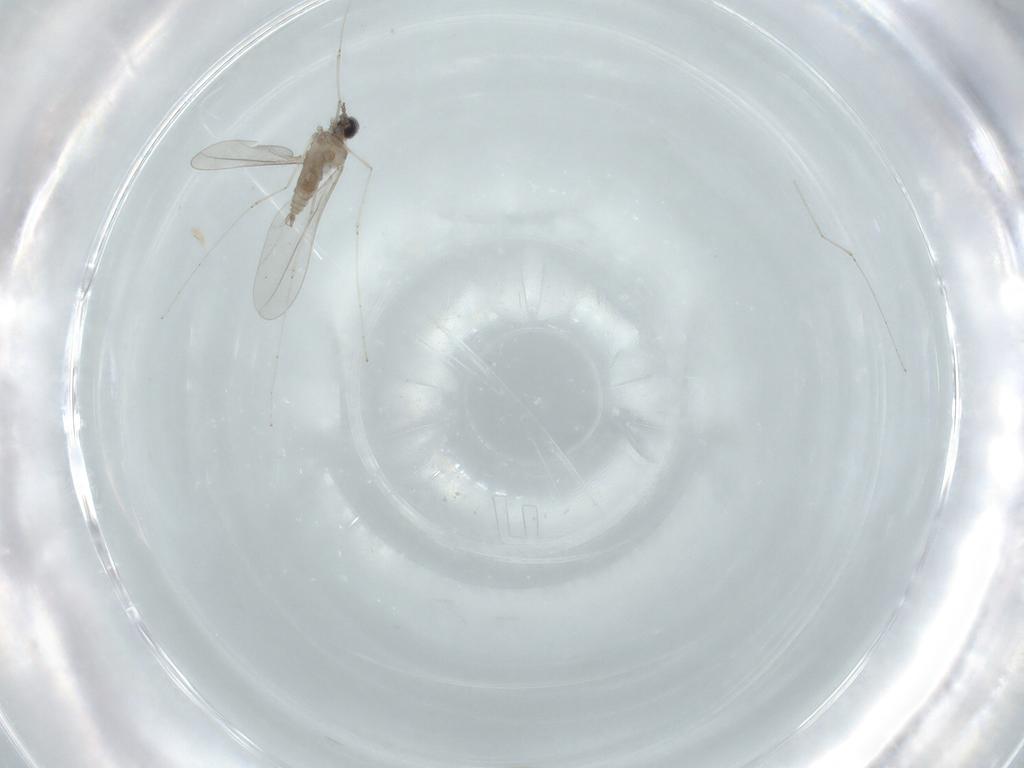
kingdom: Animalia
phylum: Arthropoda
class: Insecta
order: Diptera
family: Cecidomyiidae
